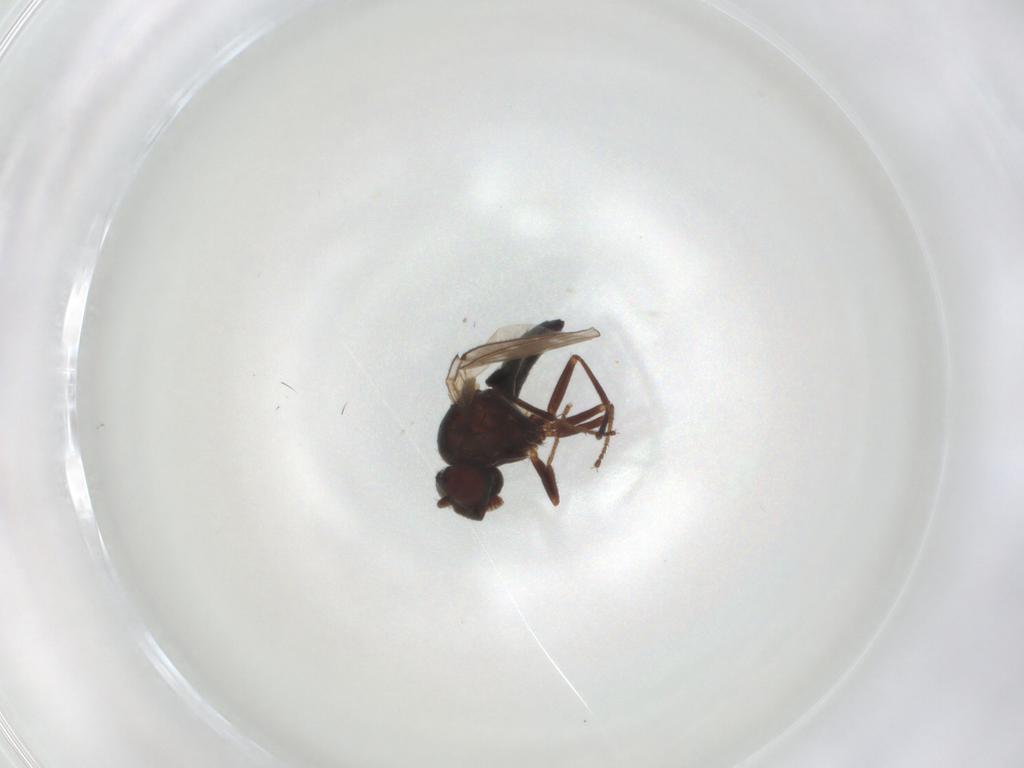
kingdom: Animalia
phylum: Arthropoda
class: Insecta
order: Diptera
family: Ephydridae
